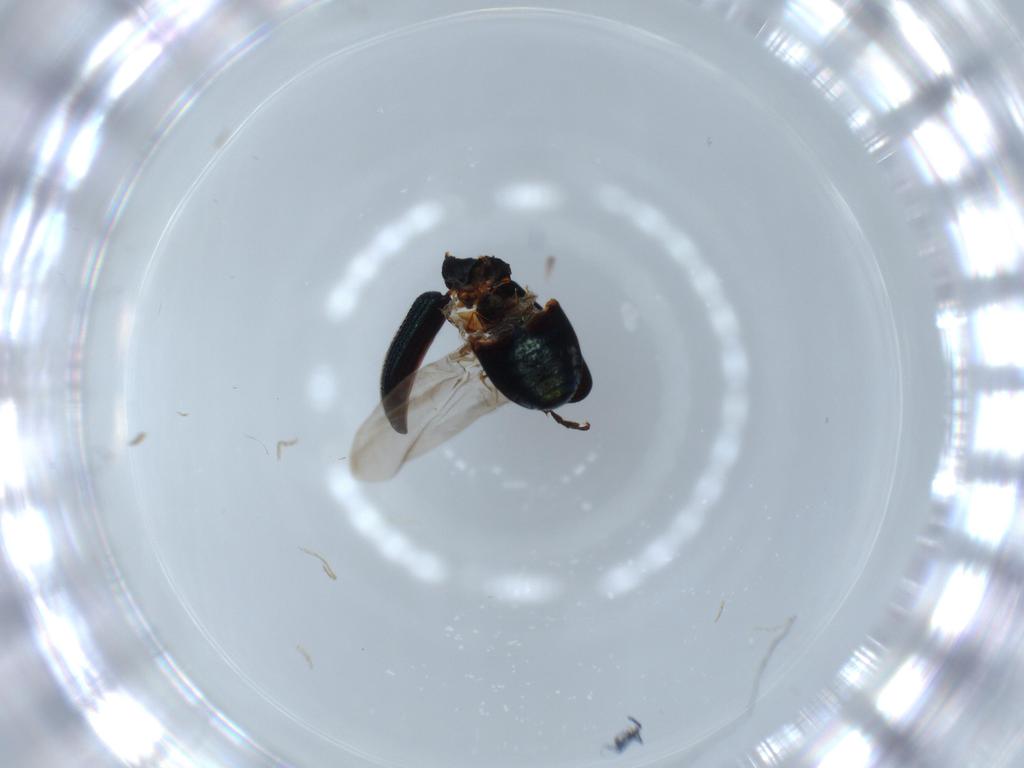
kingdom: Animalia
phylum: Arthropoda
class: Insecta
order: Coleoptera
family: Attelabidae
